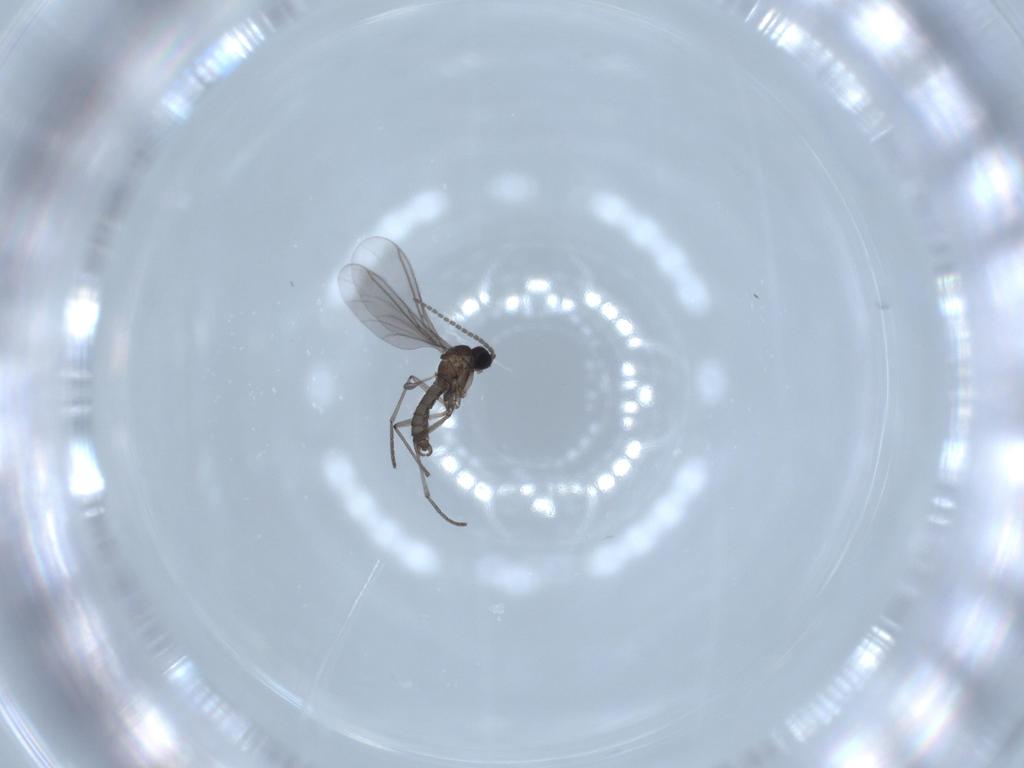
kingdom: Animalia
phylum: Arthropoda
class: Insecta
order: Diptera
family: Sciaridae
